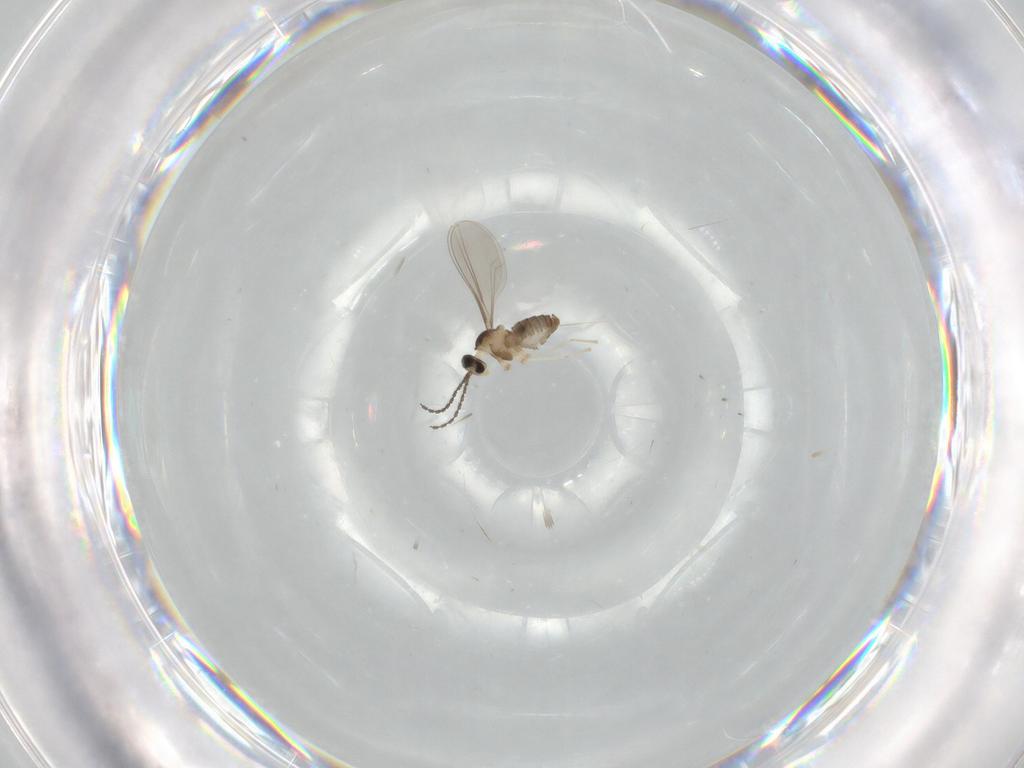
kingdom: Animalia
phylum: Arthropoda
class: Insecta
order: Diptera
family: Cecidomyiidae
